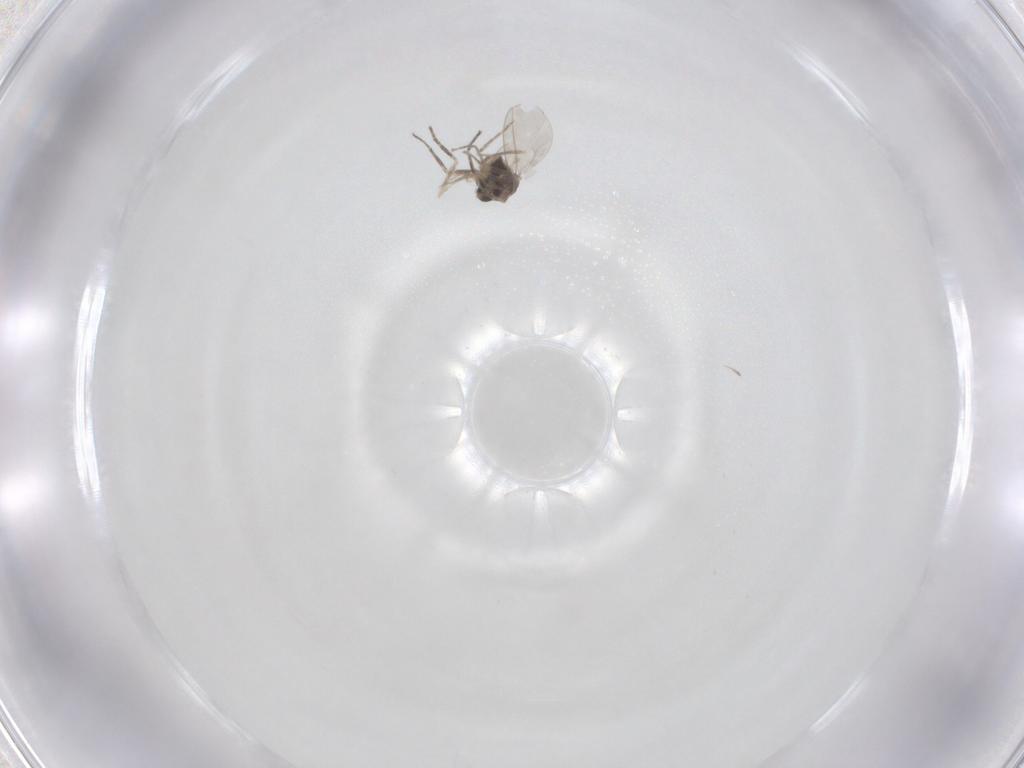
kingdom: Animalia
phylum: Arthropoda
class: Insecta
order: Diptera
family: Cecidomyiidae
